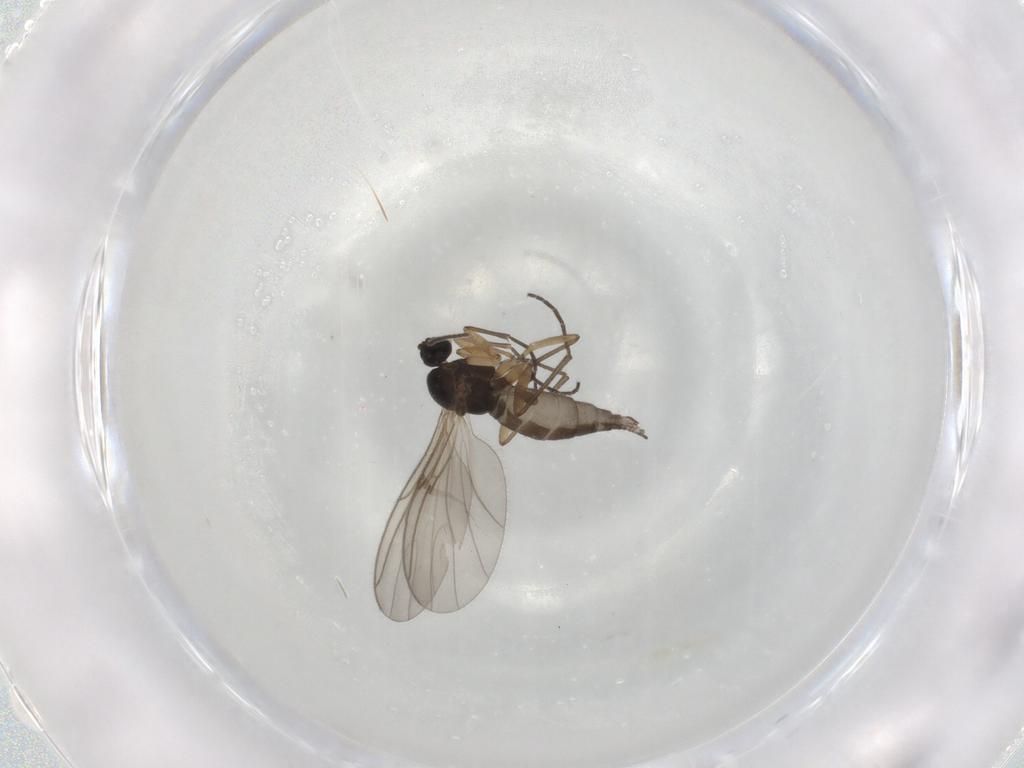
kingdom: Animalia
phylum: Arthropoda
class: Insecta
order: Diptera
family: Sciaridae
